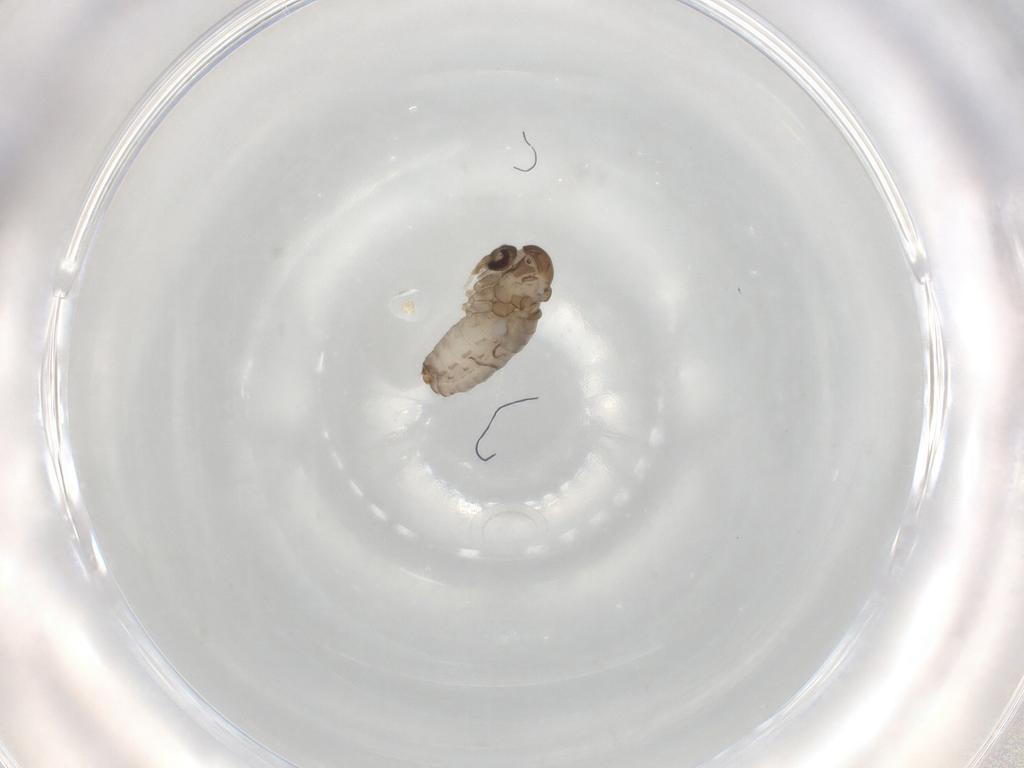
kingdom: Animalia
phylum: Arthropoda
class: Insecta
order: Diptera
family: Psychodidae
